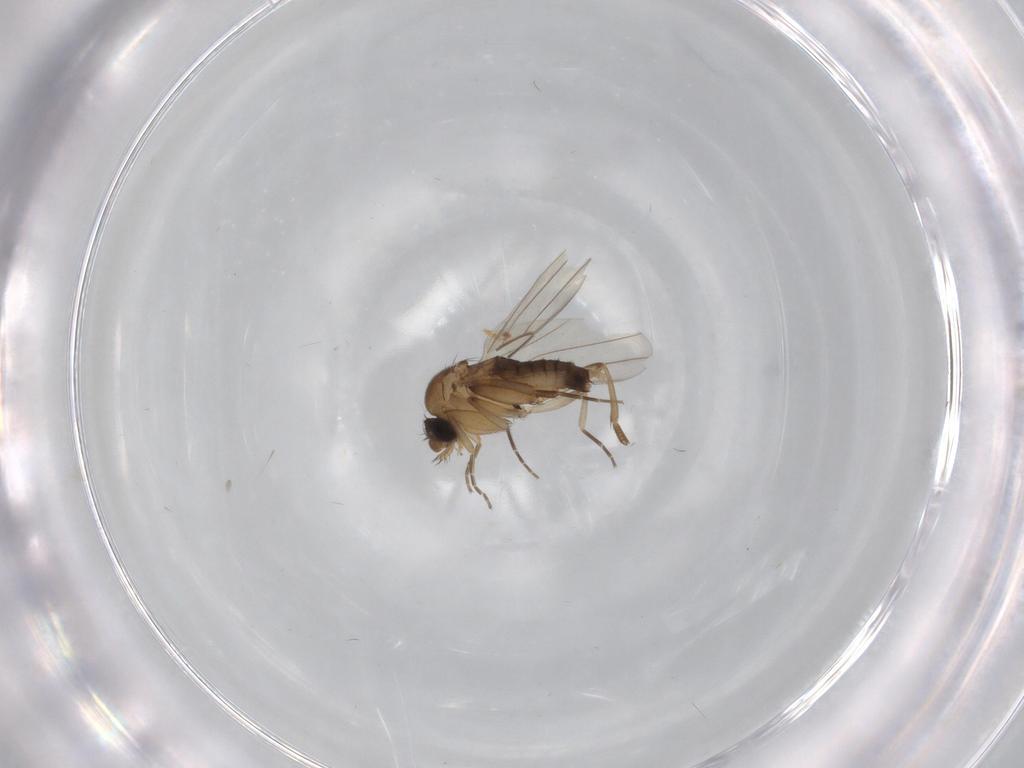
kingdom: Animalia
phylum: Arthropoda
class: Insecta
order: Diptera
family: Phoridae
